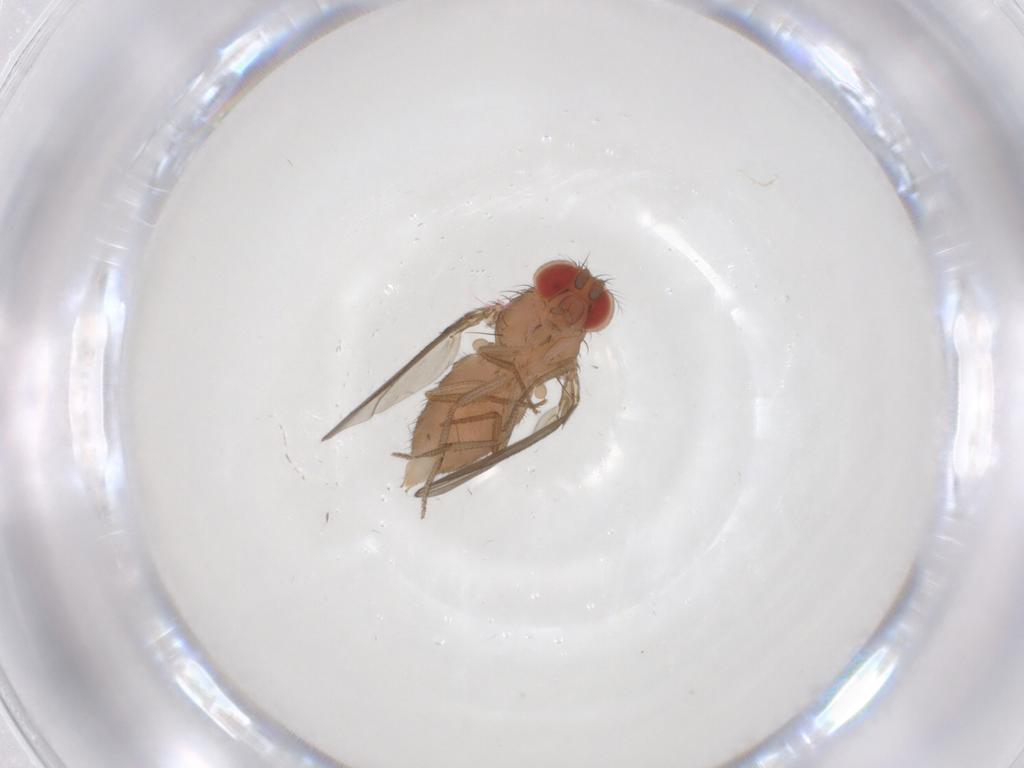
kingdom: Animalia
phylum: Arthropoda
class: Insecta
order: Diptera
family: Drosophilidae
